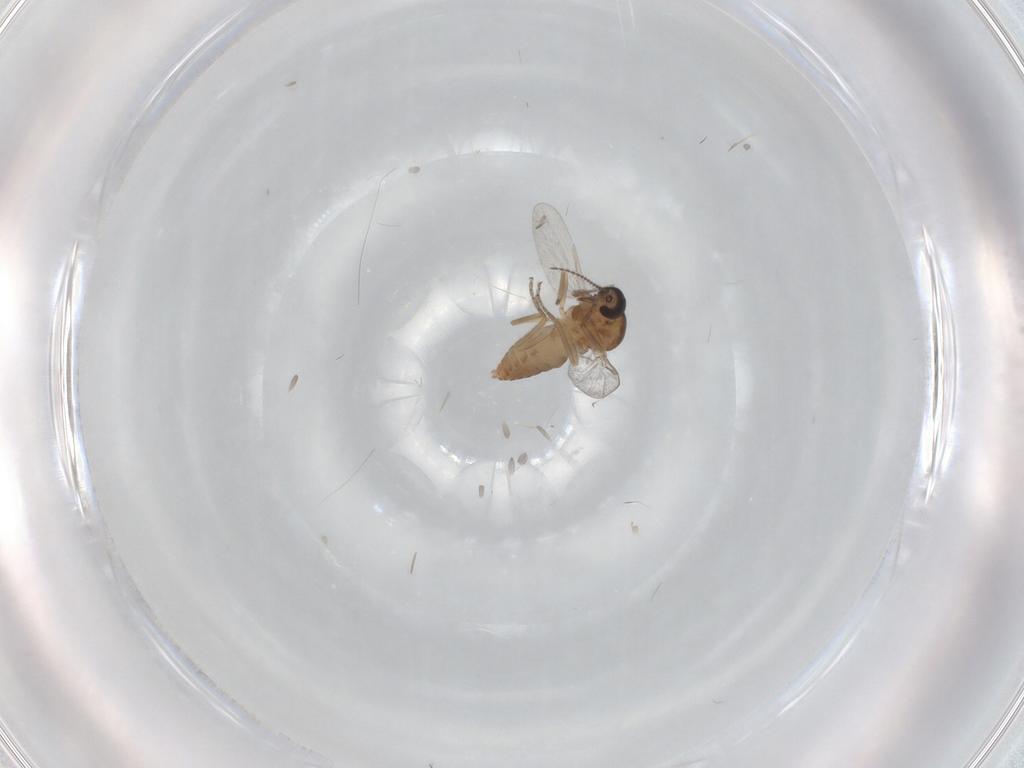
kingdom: Animalia
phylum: Arthropoda
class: Insecta
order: Diptera
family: Ceratopogonidae
